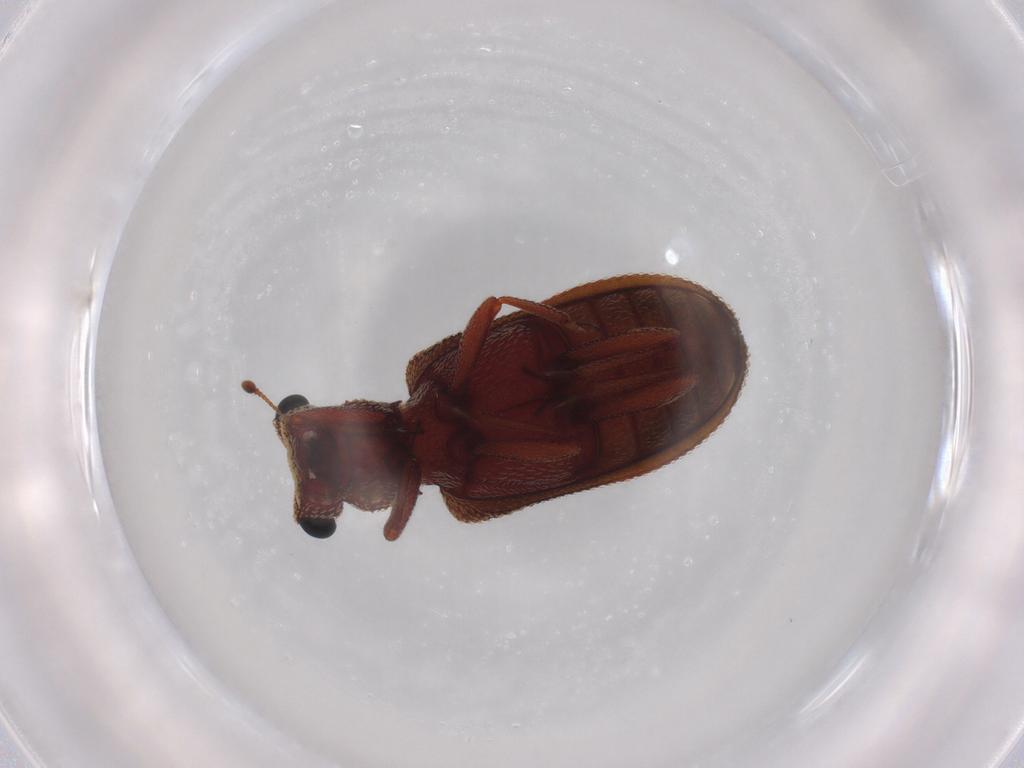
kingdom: Animalia
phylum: Arthropoda
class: Insecta
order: Coleoptera
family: Zopheridae
